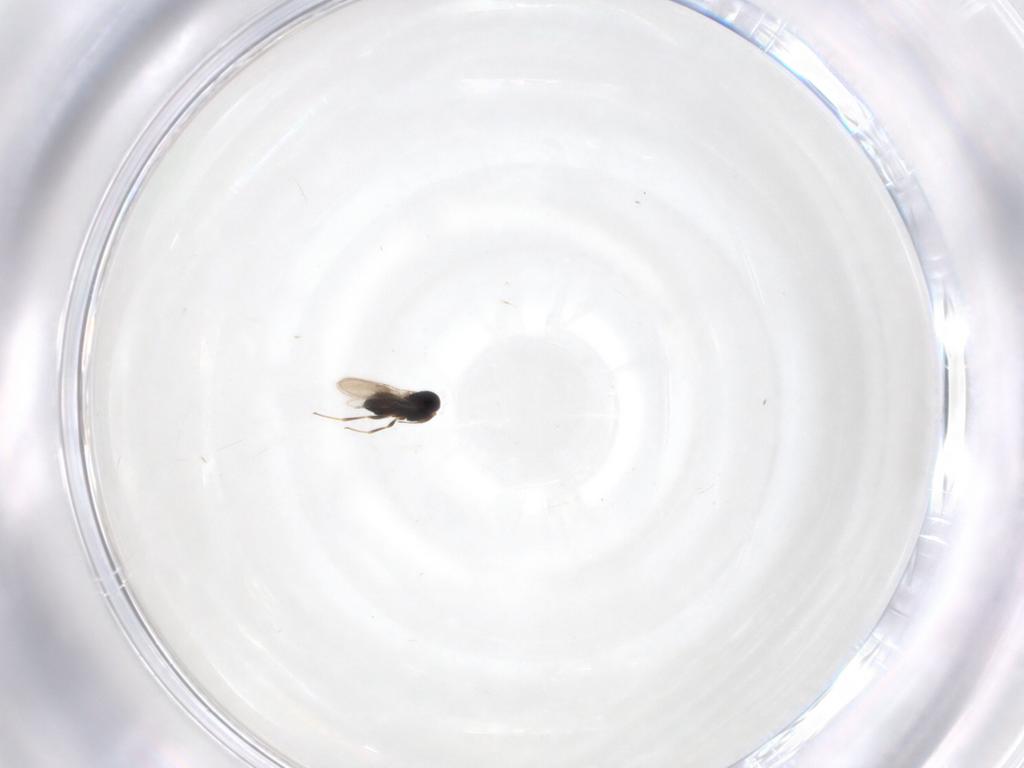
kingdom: Animalia
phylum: Arthropoda
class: Insecta
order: Hymenoptera
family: Scelionidae
